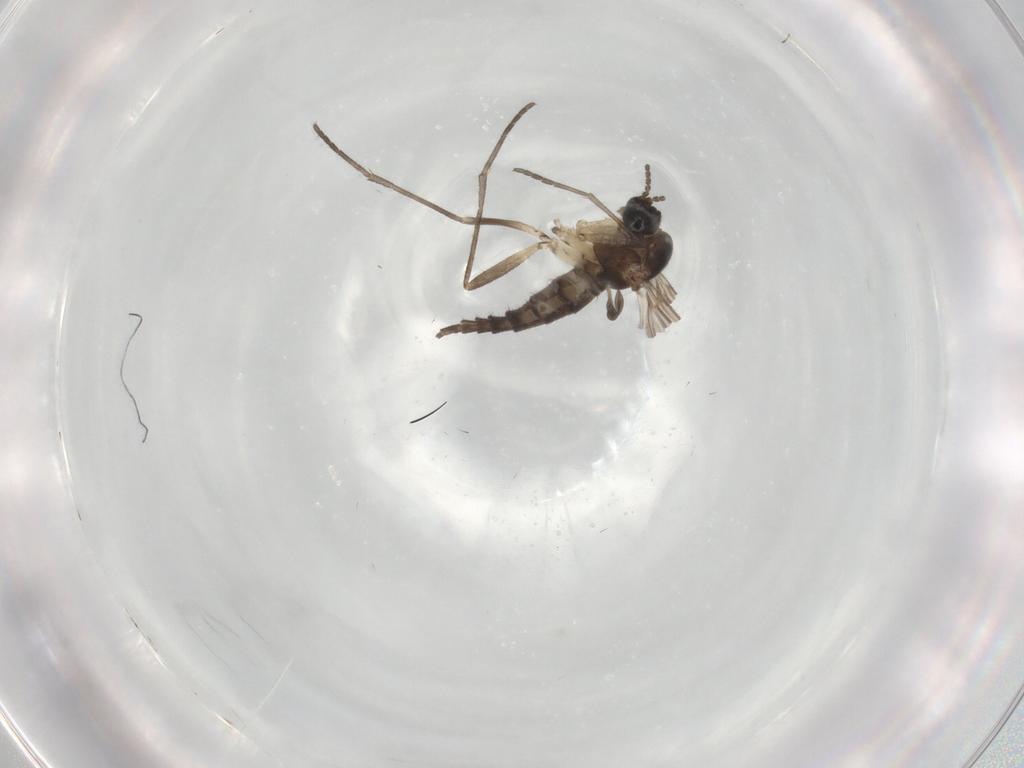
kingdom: Animalia
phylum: Arthropoda
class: Insecta
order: Diptera
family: Sciaridae
